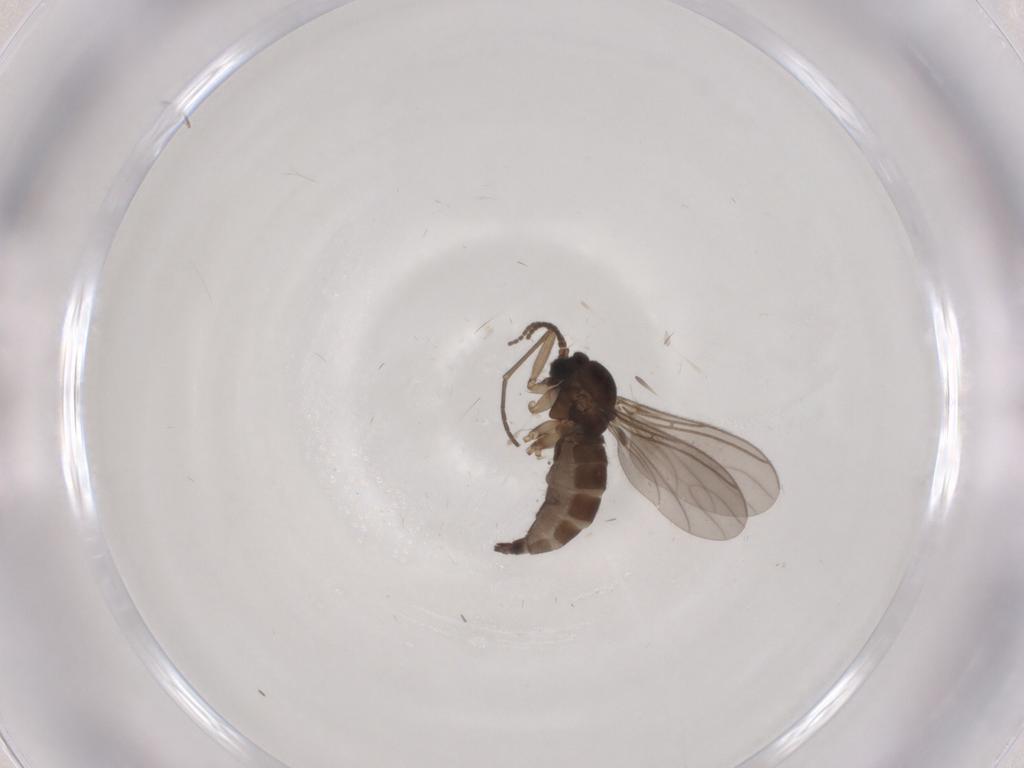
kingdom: Animalia
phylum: Arthropoda
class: Insecta
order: Diptera
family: Sciaridae
